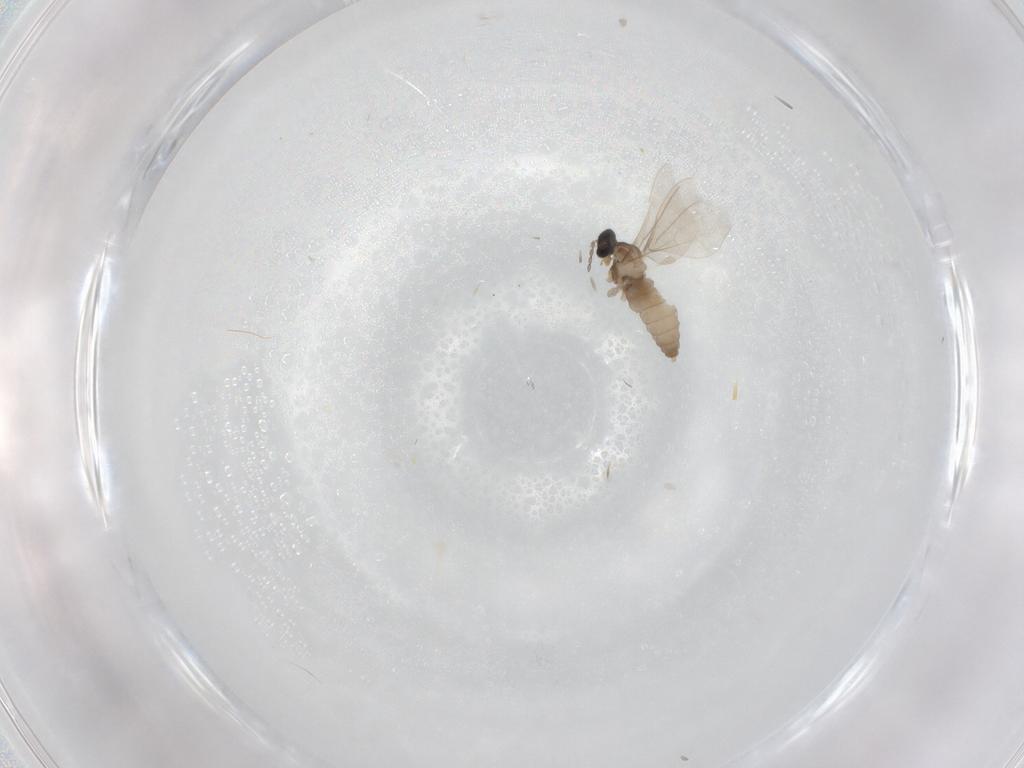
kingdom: Animalia
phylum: Arthropoda
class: Insecta
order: Diptera
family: Cecidomyiidae
